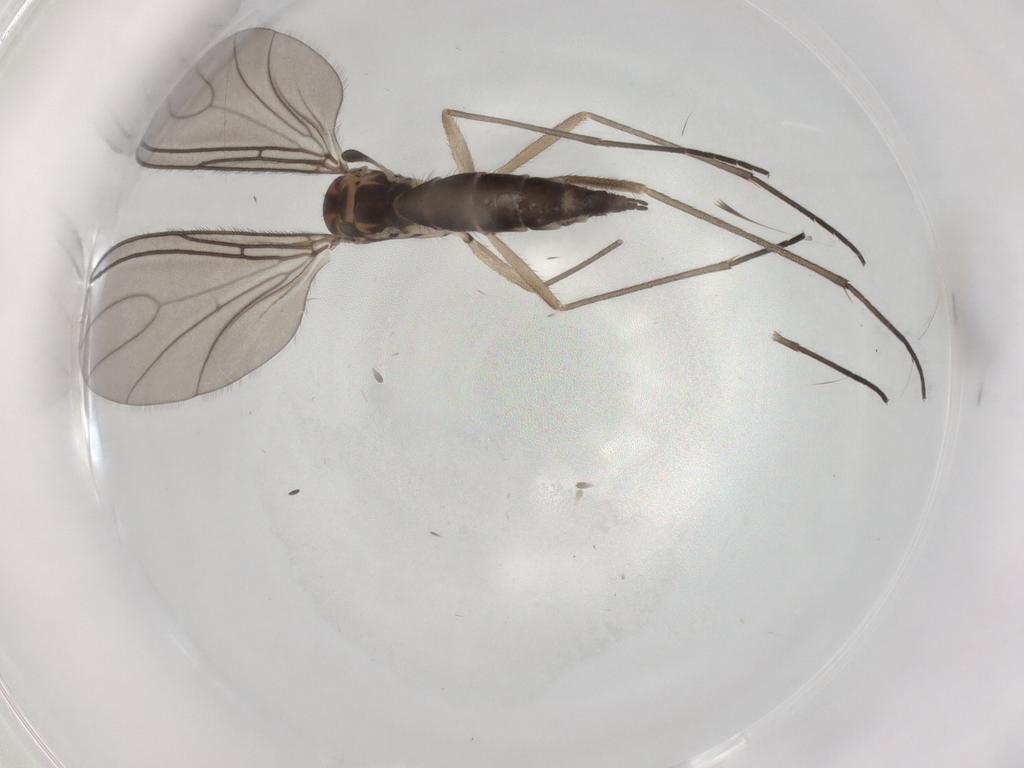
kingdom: Animalia
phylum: Arthropoda
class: Insecta
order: Diptera
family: Sciaridae
